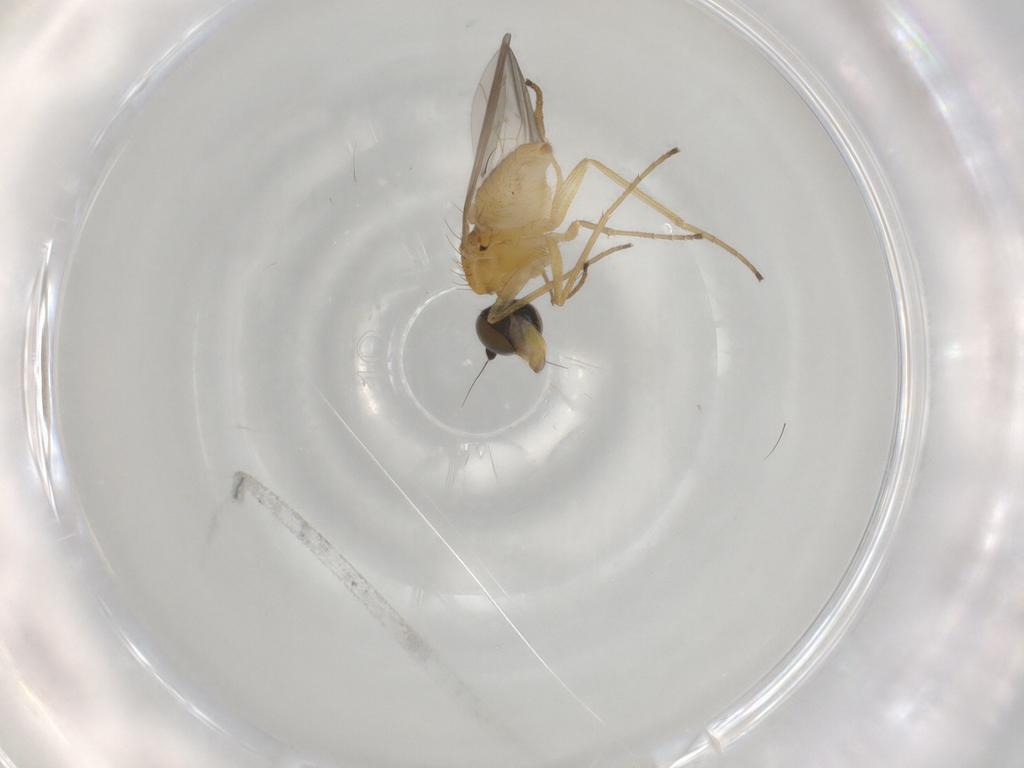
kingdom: Animalia
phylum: Arthropoda
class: Insecta
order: Diptera
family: Dolichopodidae
